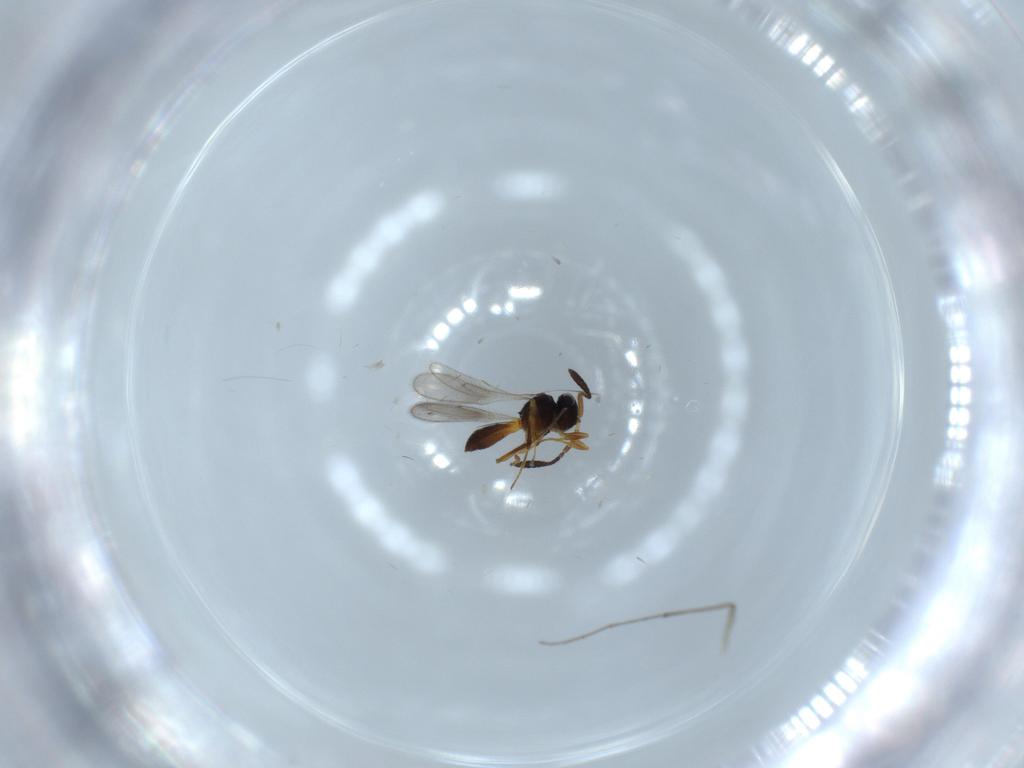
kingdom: Animalia
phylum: Arthropoda
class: Insecta
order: Hymenoptera
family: Scelionidae
